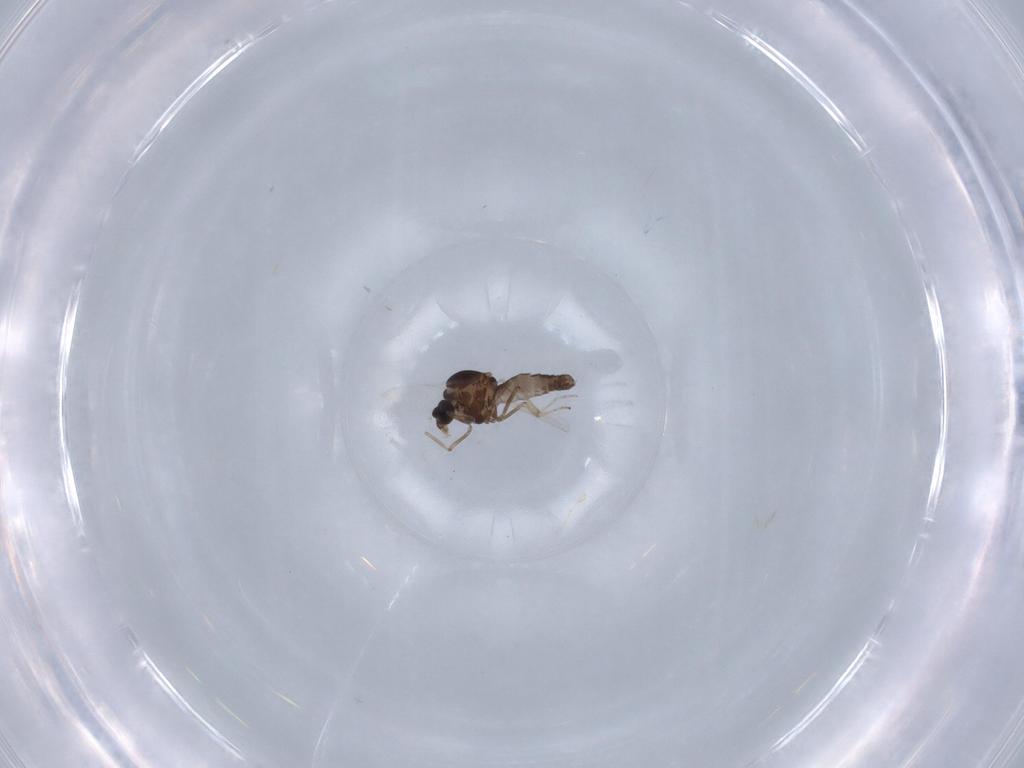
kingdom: Animalia
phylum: Arthropoda
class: Insecta
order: Diptera
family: Ceratopogonidae
